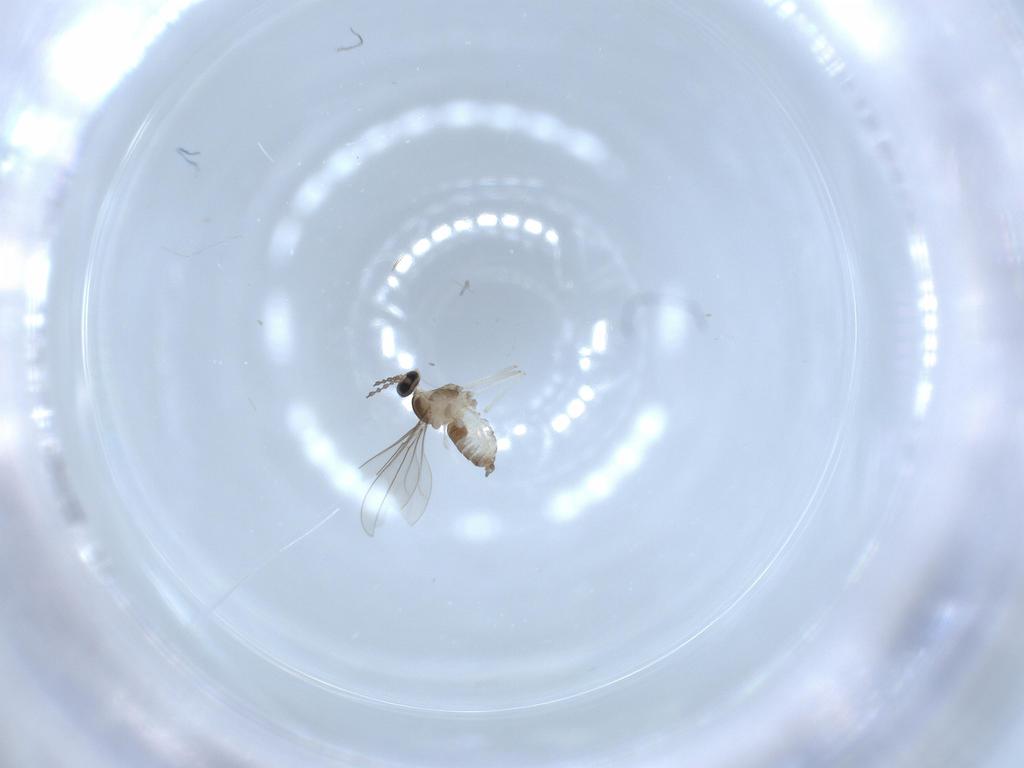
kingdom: Animalia
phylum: Arthropoda
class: Insecta
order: Diptera
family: Cecidomyiidae
